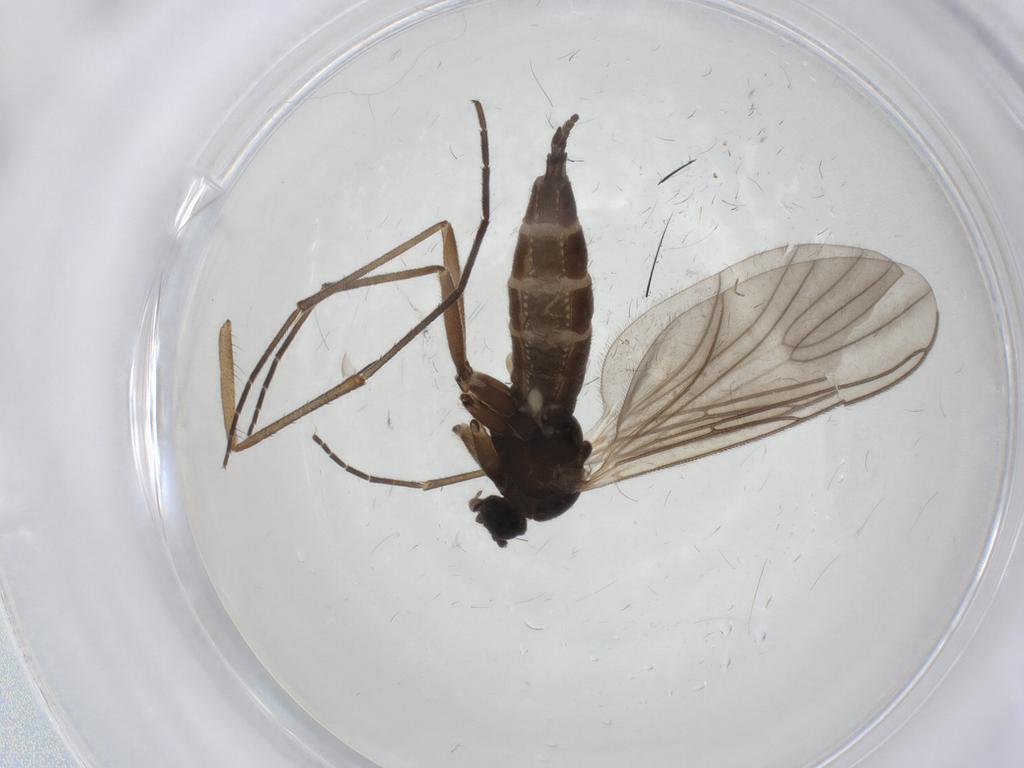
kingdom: Animalia
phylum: Arthropoda
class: Insecta
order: Diptera
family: Sciaridae
